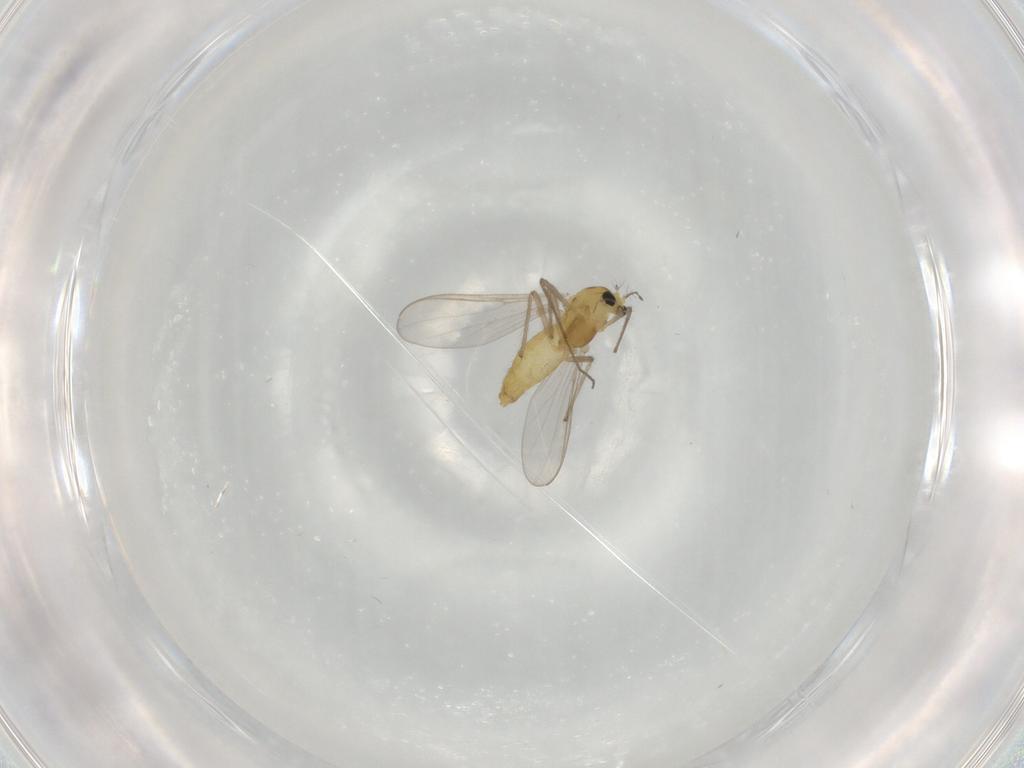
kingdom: Animalia
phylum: Arthropoda
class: Insecta
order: Diptera
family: Chironomidae
